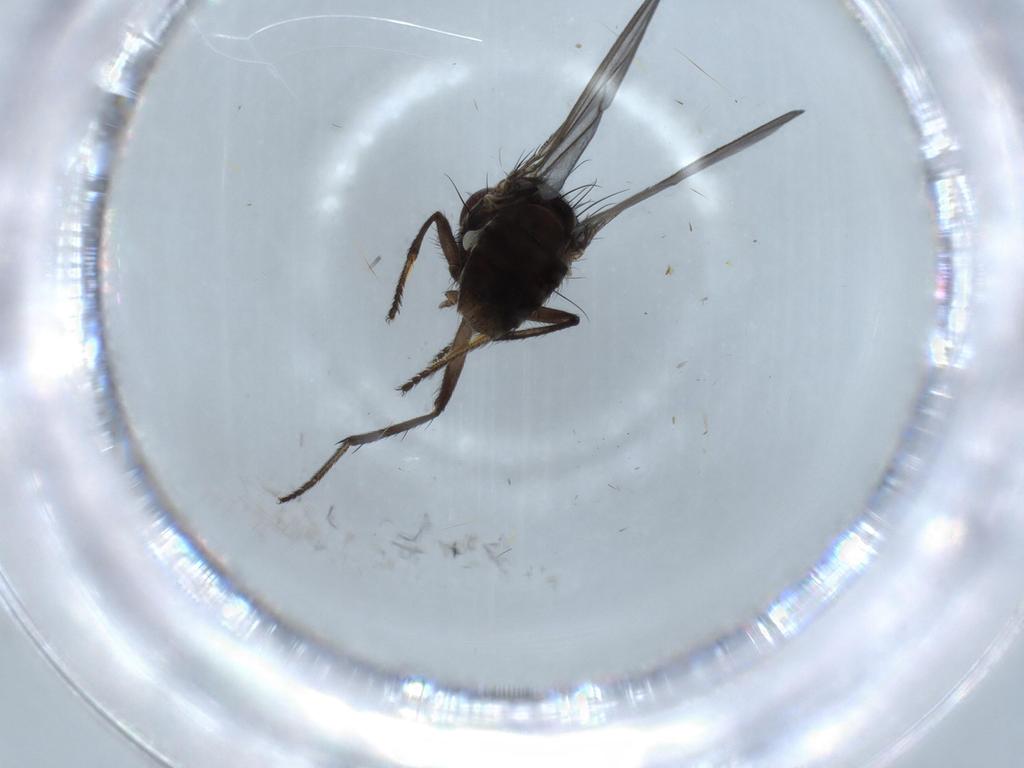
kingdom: Animalia
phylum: Arthropoda
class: Insecta
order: Diptera
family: Ephydridae
